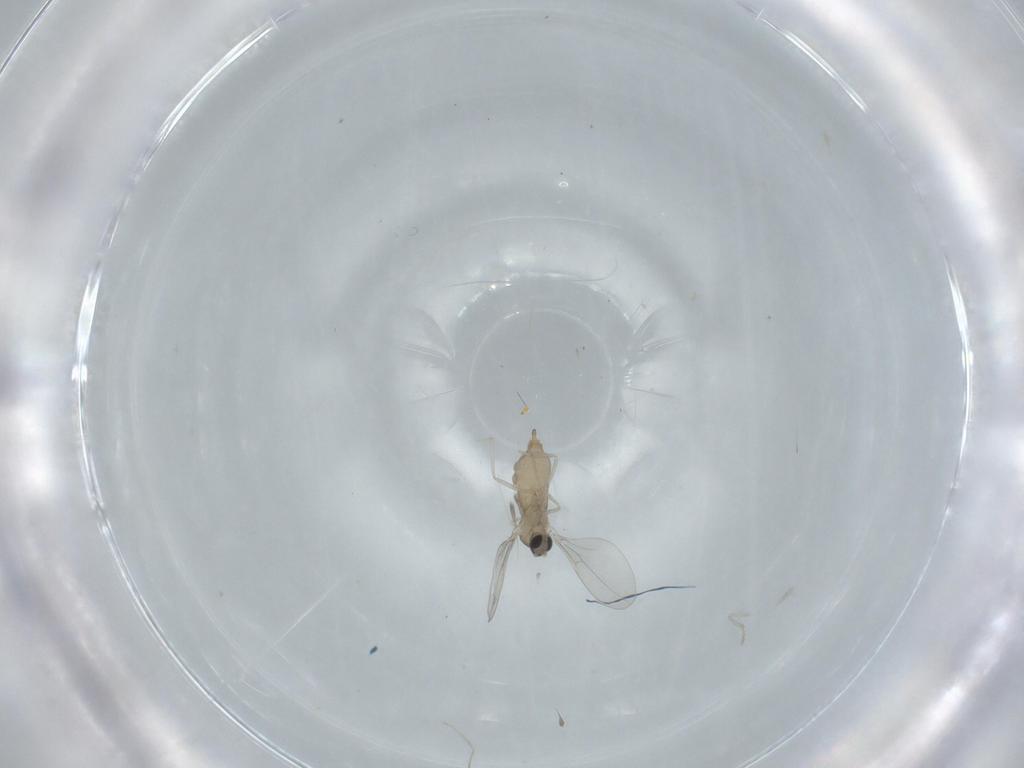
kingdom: Animalia
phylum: Arthropoda
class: Insecta
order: Diptera
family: Cecidomyiidae
